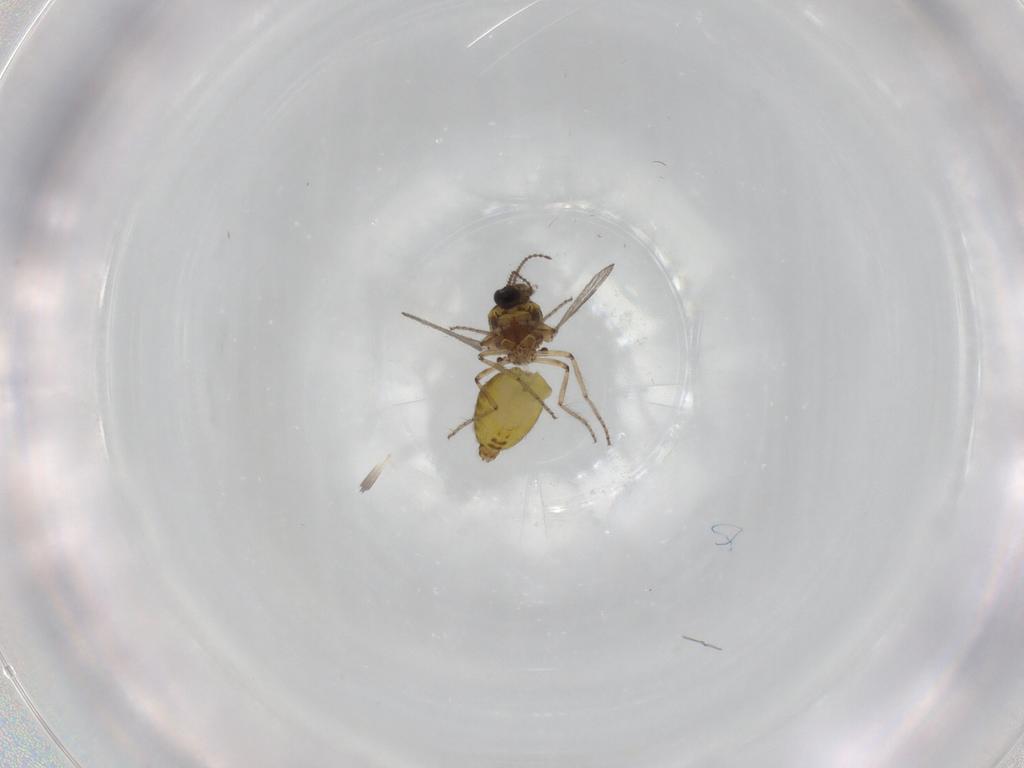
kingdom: Animalia
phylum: Arthropoda
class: Insecta
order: Diptera
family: Ceratopogonidae
